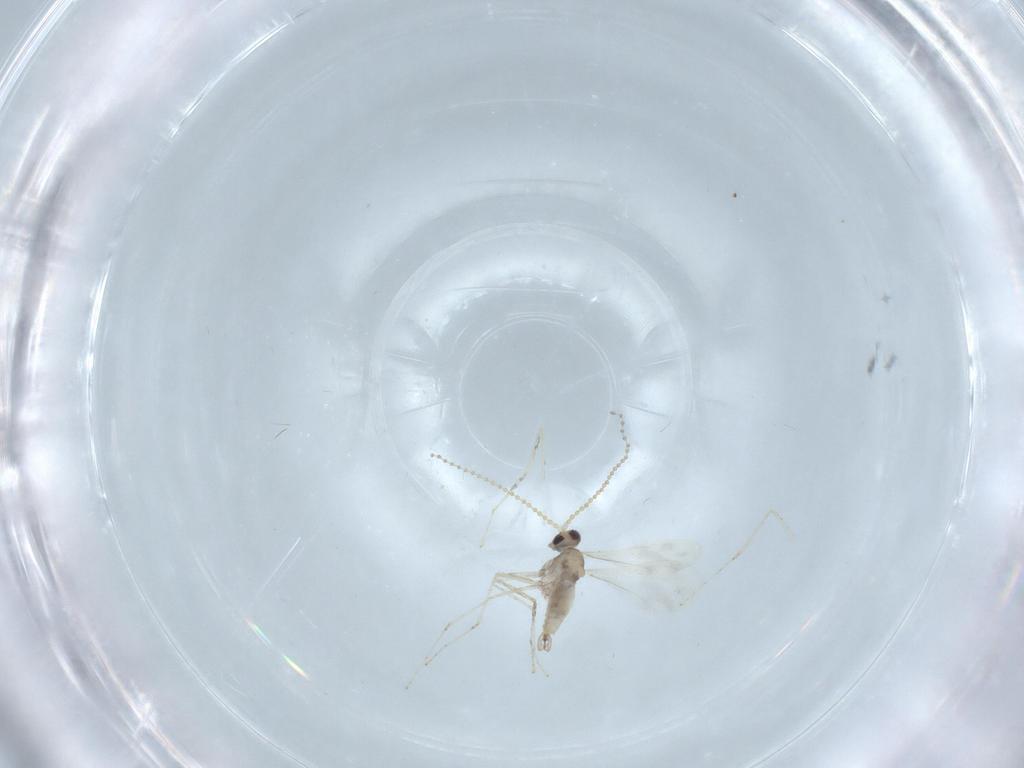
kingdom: Animalia
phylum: Arthropoda
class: Insecta
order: Diptera
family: Cecidomyiidae
